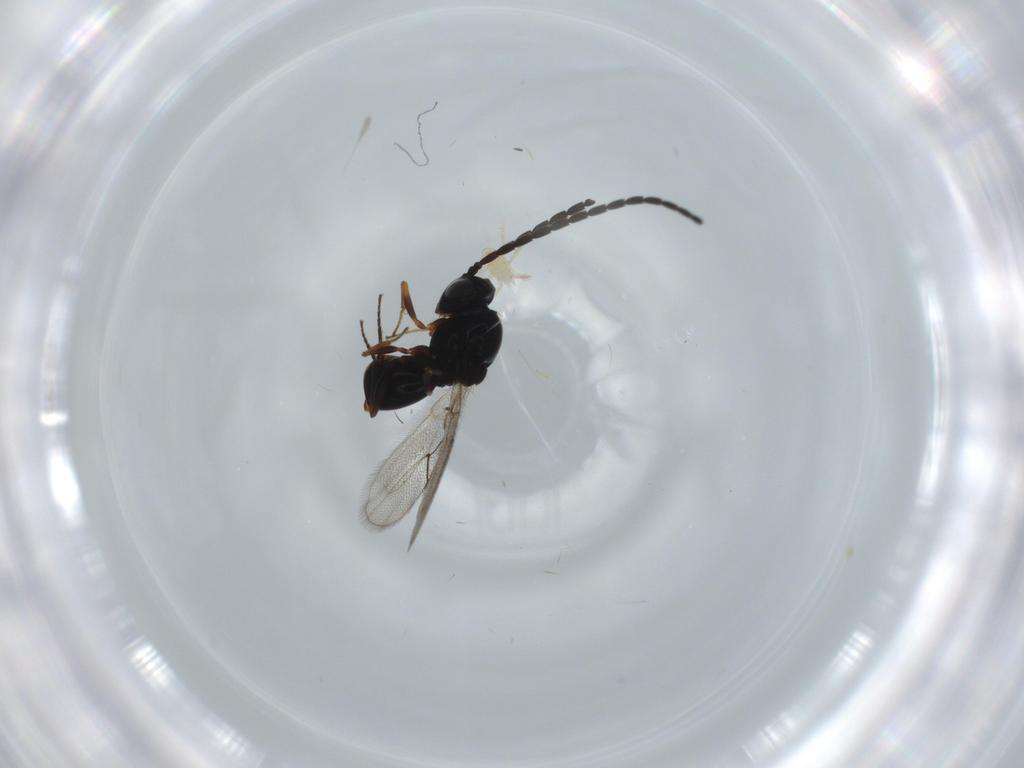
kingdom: Animalia
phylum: Arthropoda
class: Insecta
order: Hymenoptera
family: Figitidae
